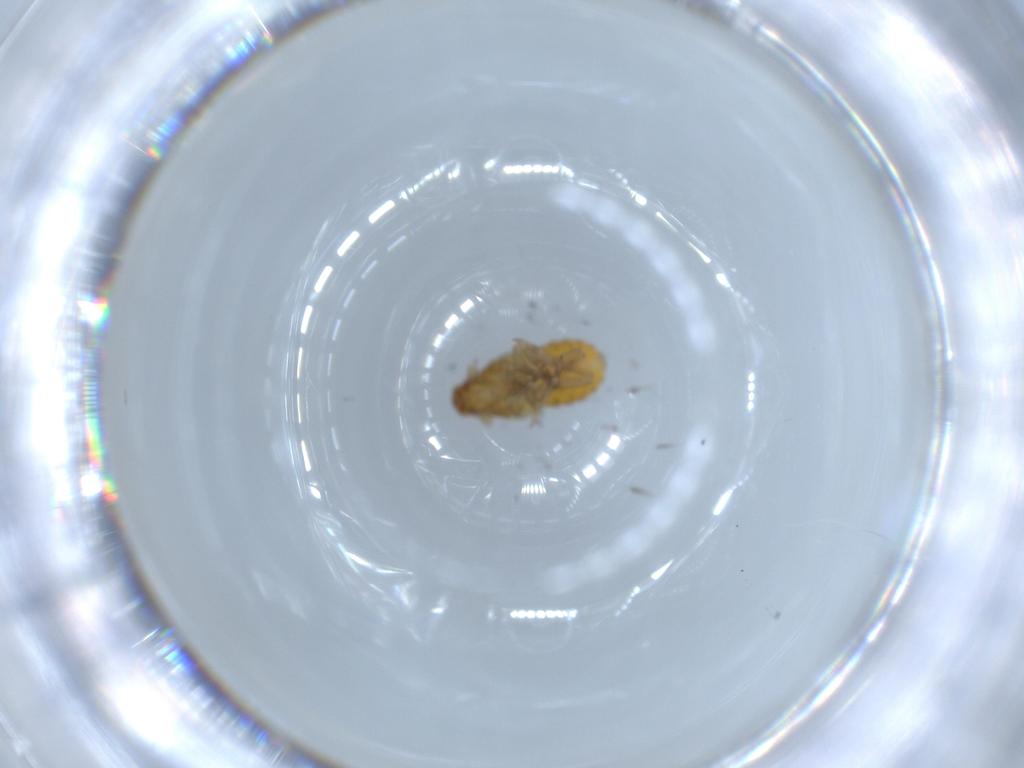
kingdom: Animalia
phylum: Arthropoda
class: Insecta
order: Hemiptera
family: Delphacidae
